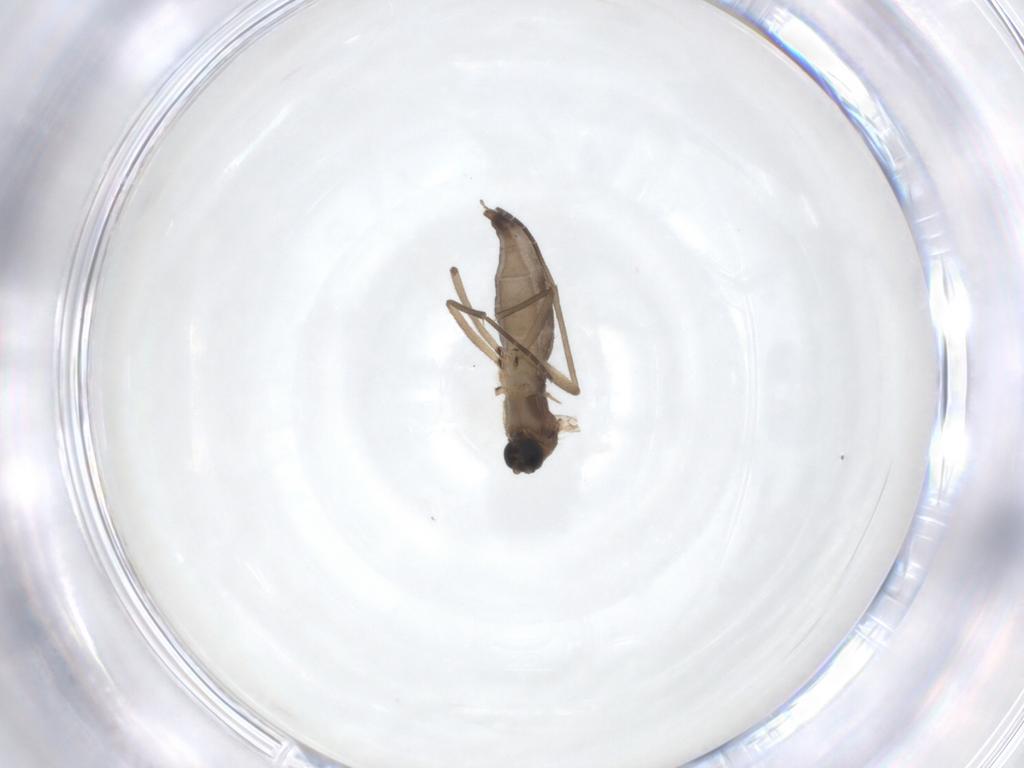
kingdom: Animalia
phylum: Arthropoda
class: Insecta
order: Diptera
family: Sciaridae
